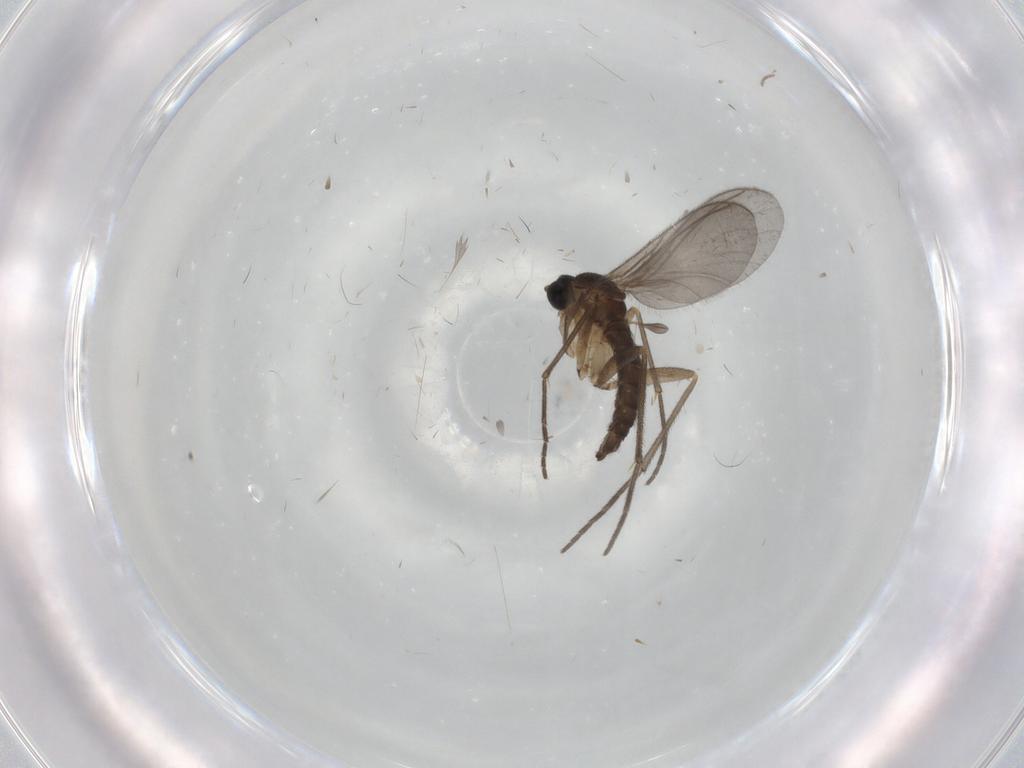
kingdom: Animalia
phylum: Arthropoda
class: Insecta
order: Diptera
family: Sciaridae
